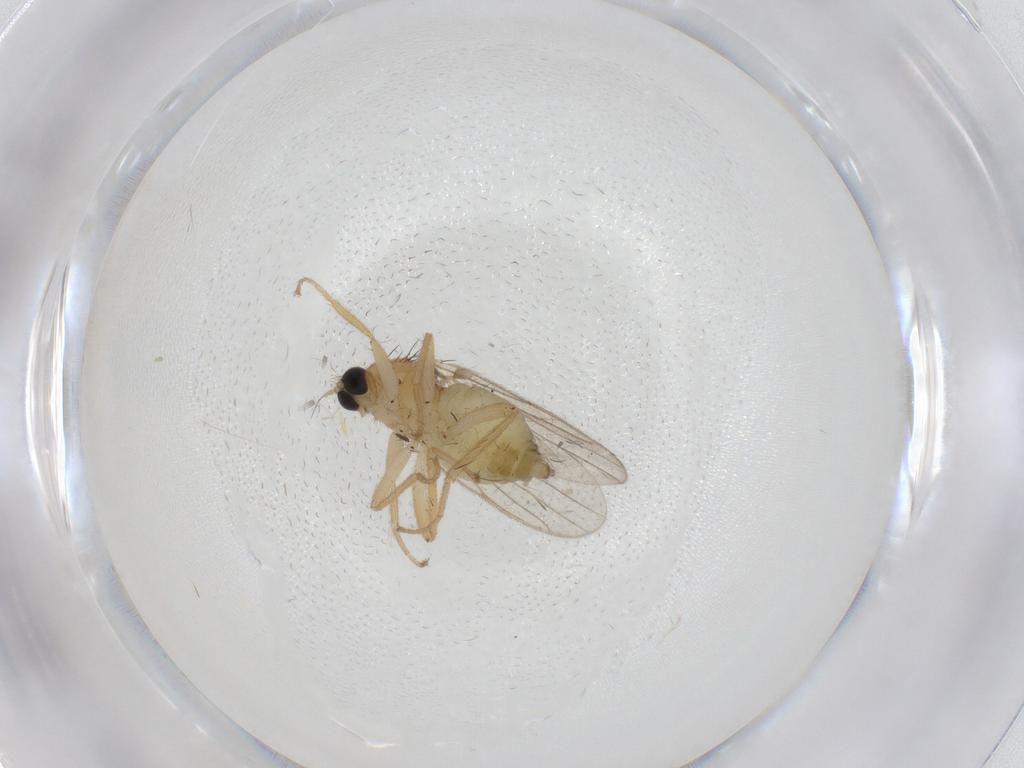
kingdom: Animalia
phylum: Arthropoda
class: Insecta
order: Diptera
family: Hybotidae
